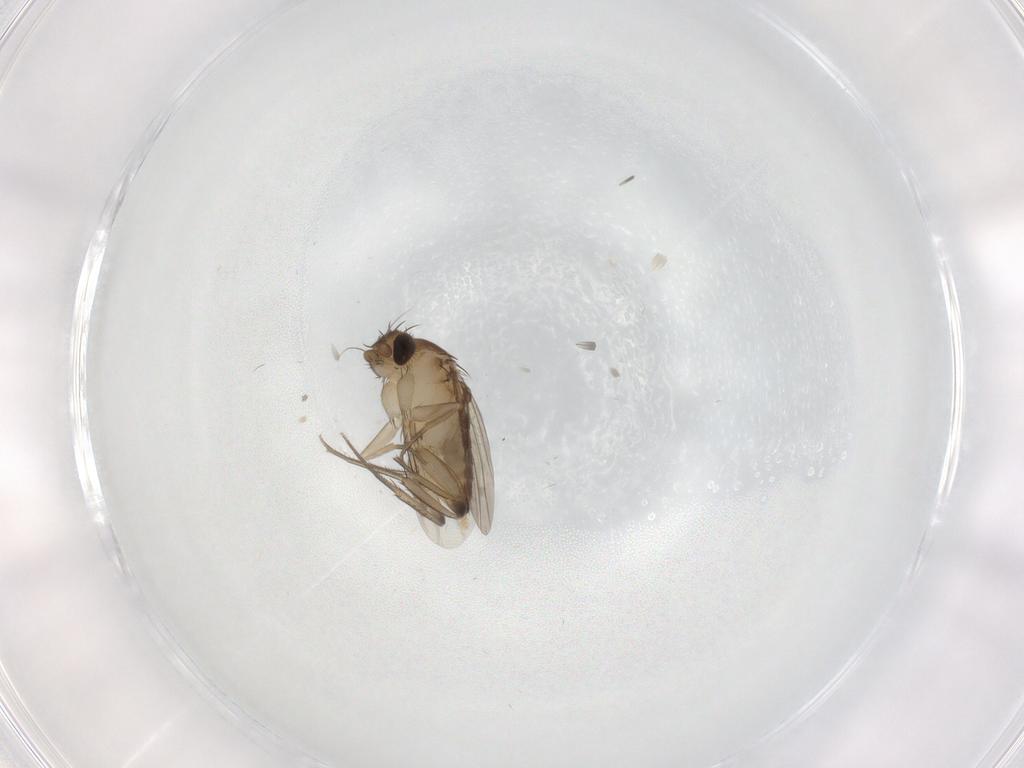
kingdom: Animalia
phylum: Arthropoda
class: Insecta
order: Diptera
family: Phoridae
